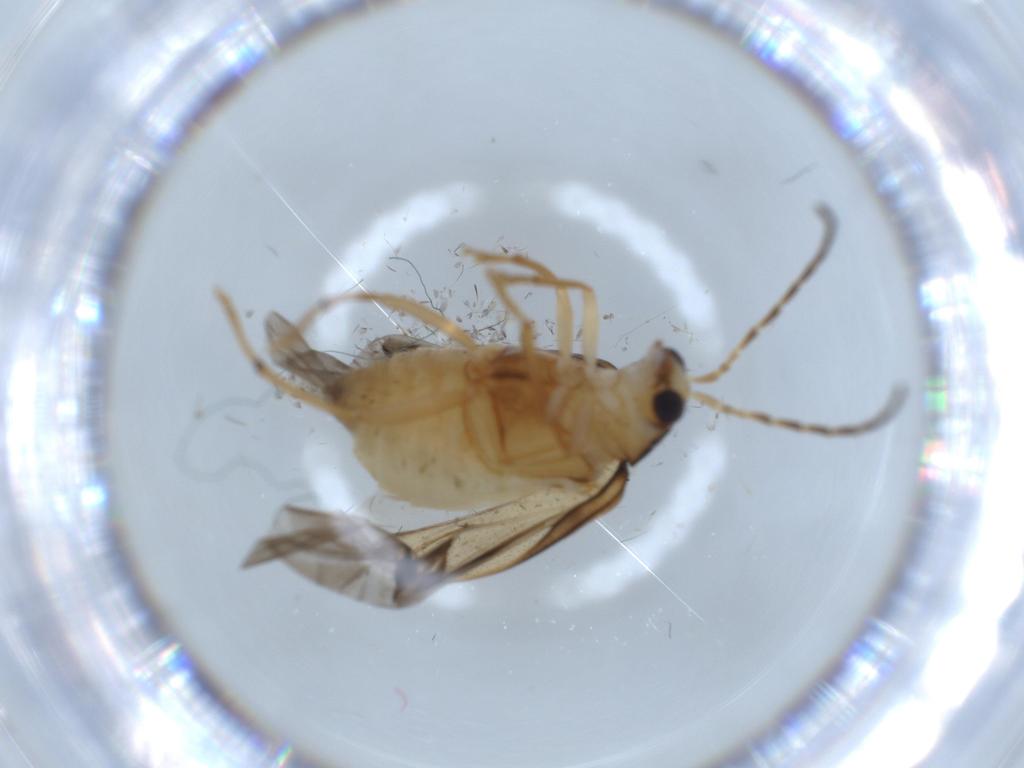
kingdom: Animalia
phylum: Arthropoda
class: Insecta
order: Coleoptera
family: Chrysomelidae
